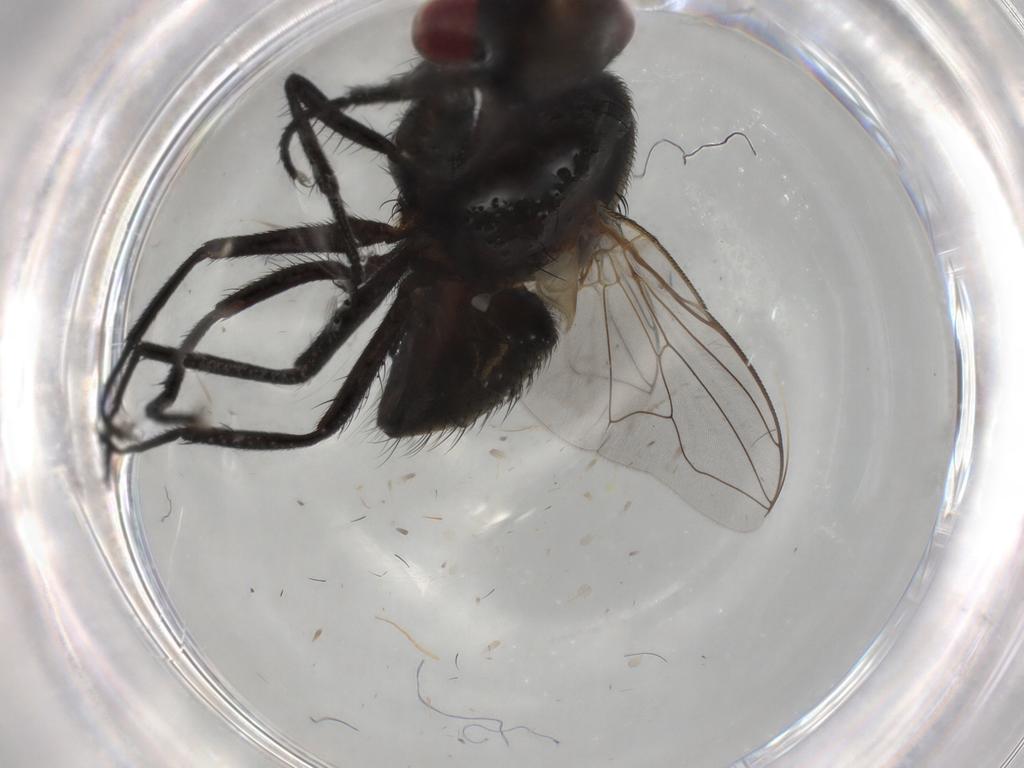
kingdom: Animalia
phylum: Arthropoda
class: Insecta
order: Diptera
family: Muscidae
